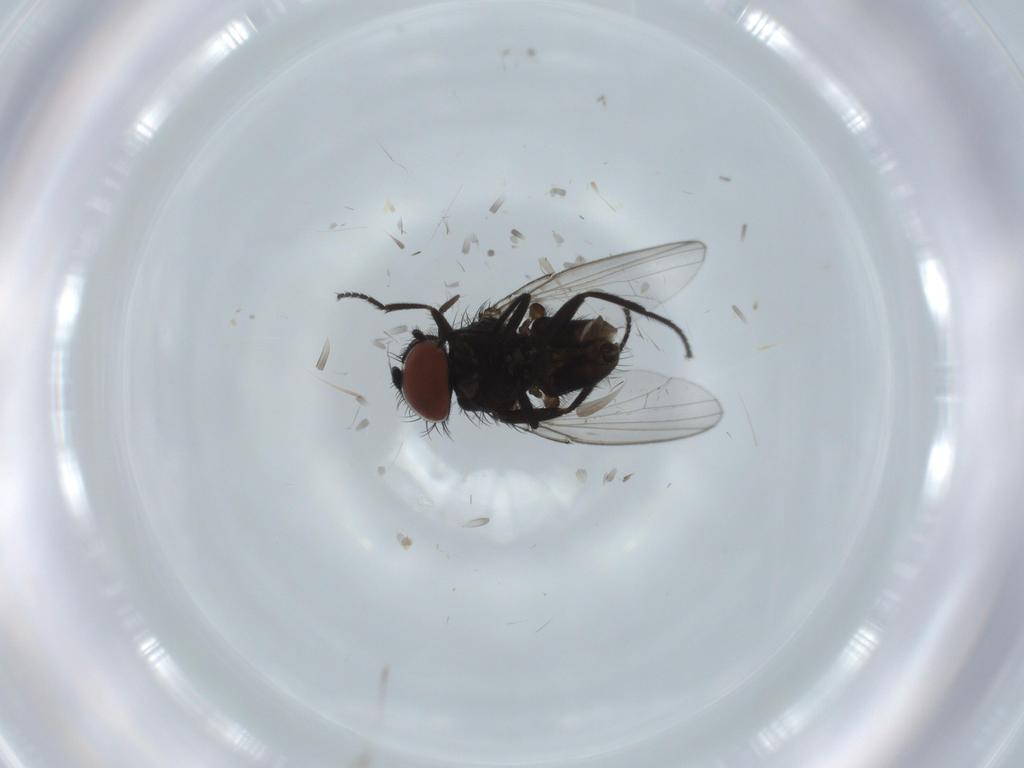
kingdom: Animalia
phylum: Arthropoda
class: Insecta
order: Diptera
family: Milichiidae
